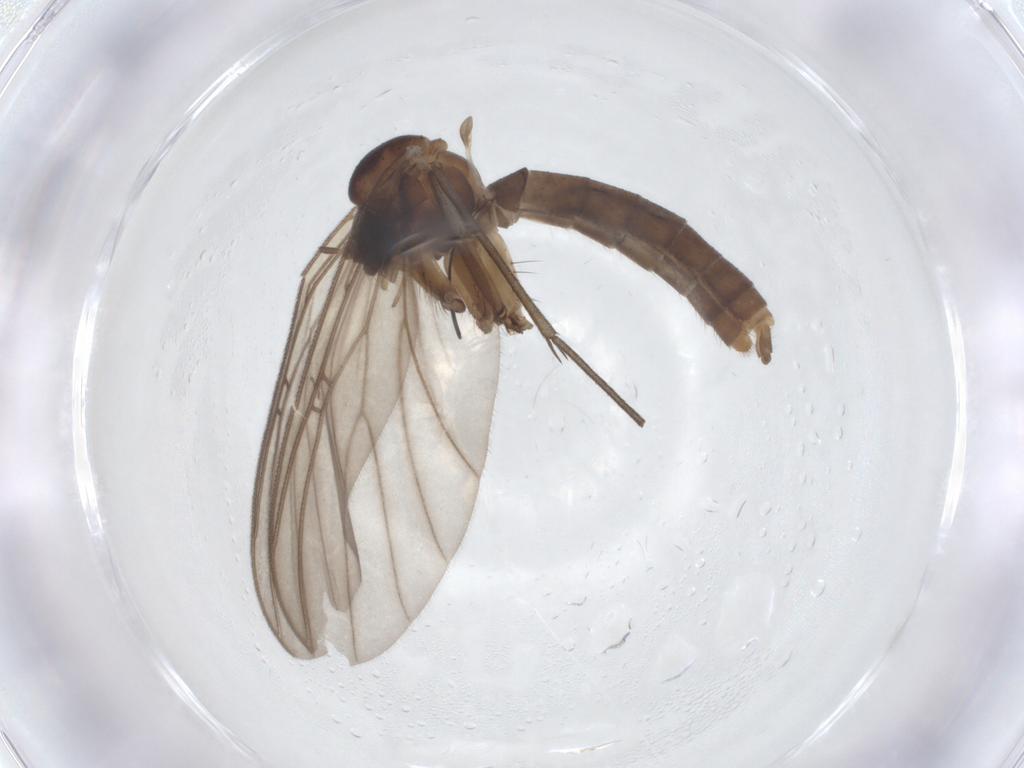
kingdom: Animalia
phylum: Arthropoda
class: Insecta
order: Diptera
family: Mycetophilidae
